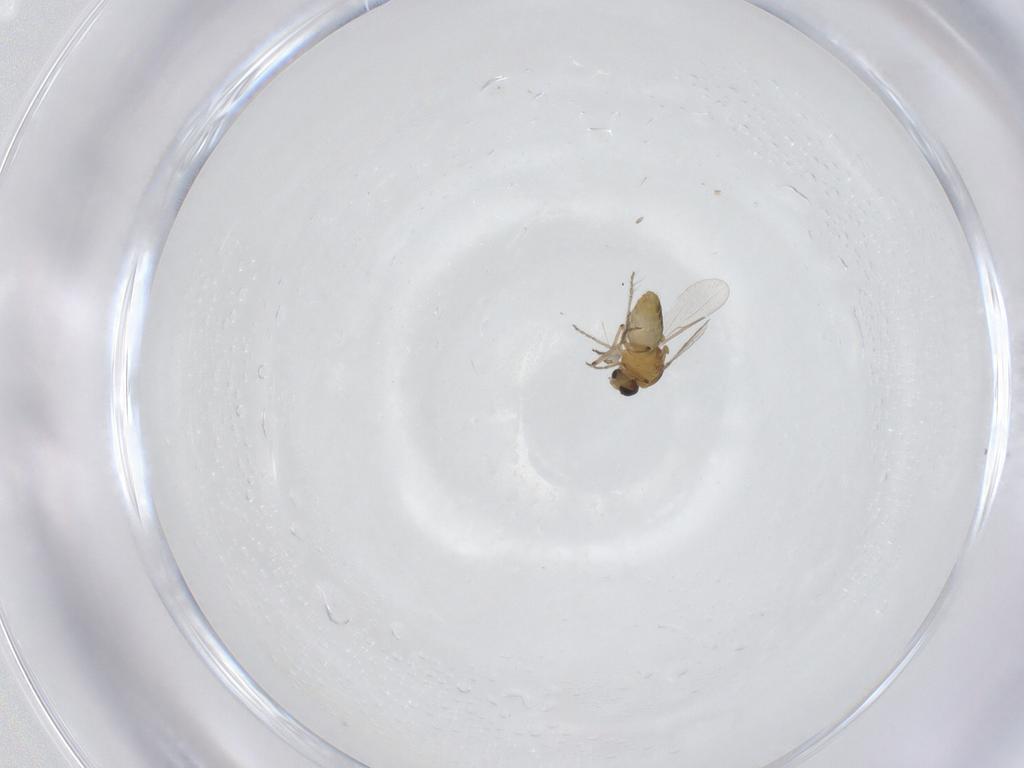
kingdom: Animalia
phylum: Arthropoda
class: Insecta
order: Diptera
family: Ceratopogonidae
